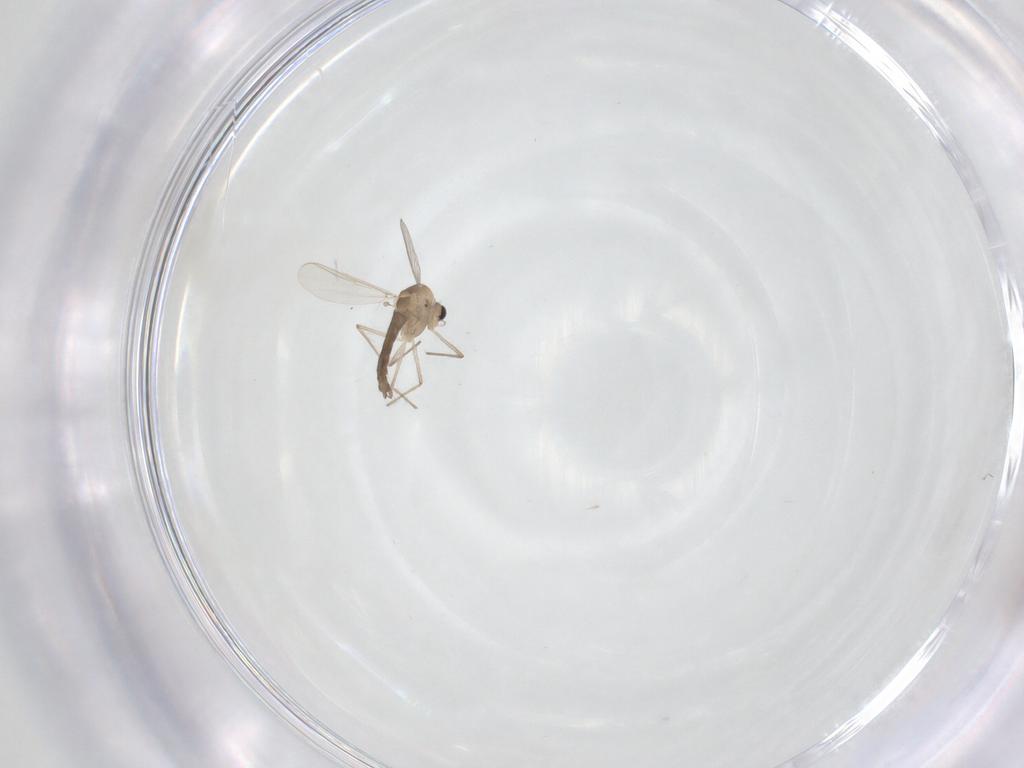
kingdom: Animalia
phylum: Arthropoda
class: Insecta
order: Diptera
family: Chironomidae
